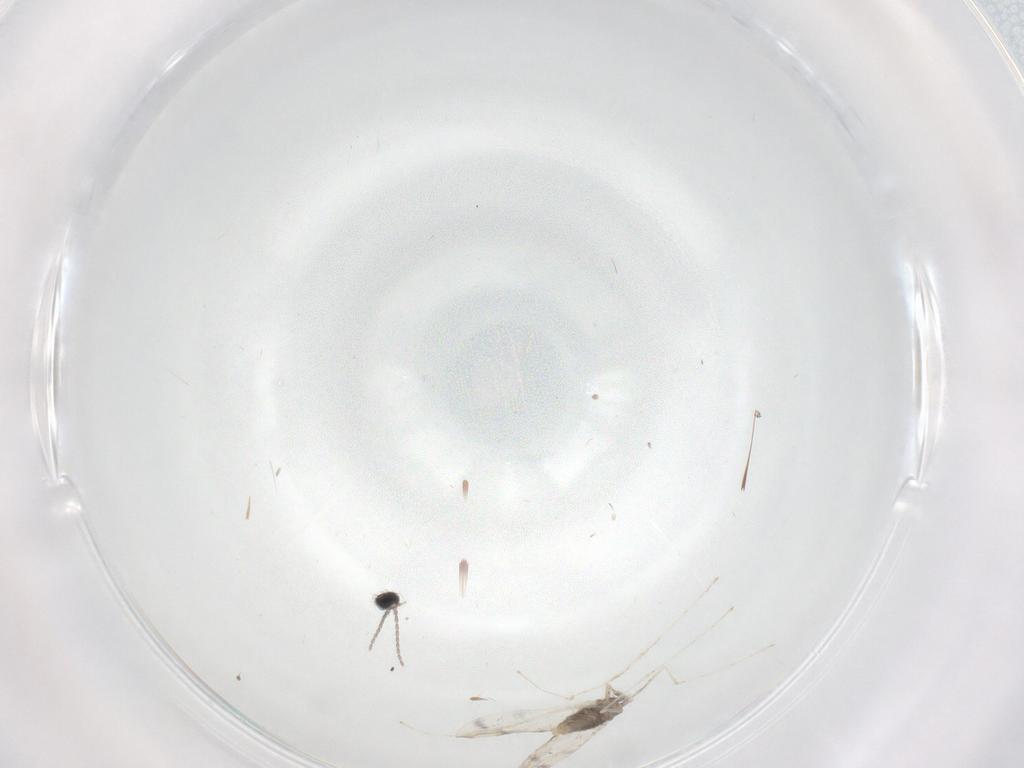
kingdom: Animalia
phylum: Arthropoda
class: Insecta
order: Diptera
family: Cecidomyiidae
